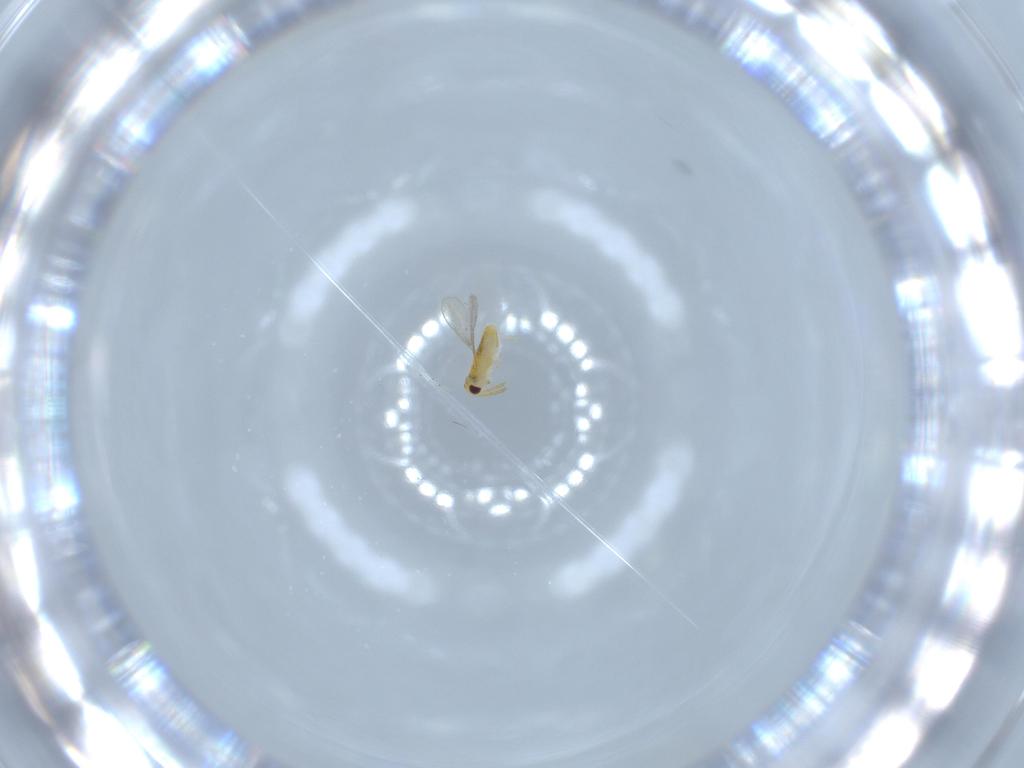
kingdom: Animalia
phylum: Arthropoda
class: Insecta
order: Hymenoptera
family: Aphelinidae
